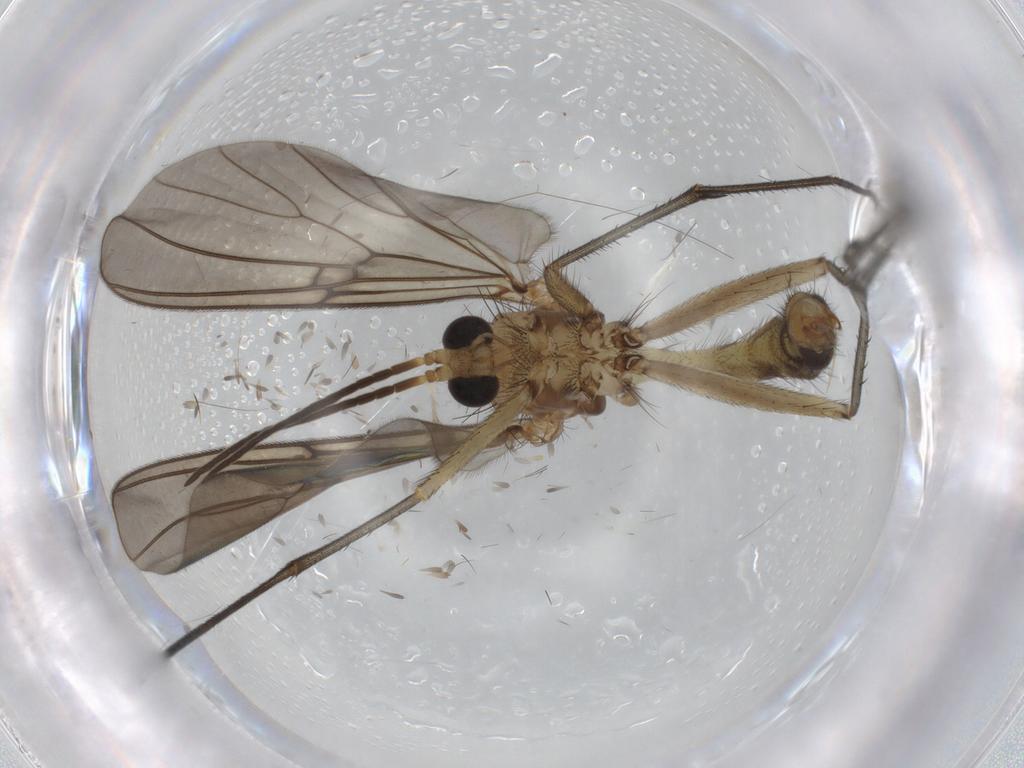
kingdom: Animalia
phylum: Arthropoda
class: Insecta
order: Diptera
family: Mycetophilidae
